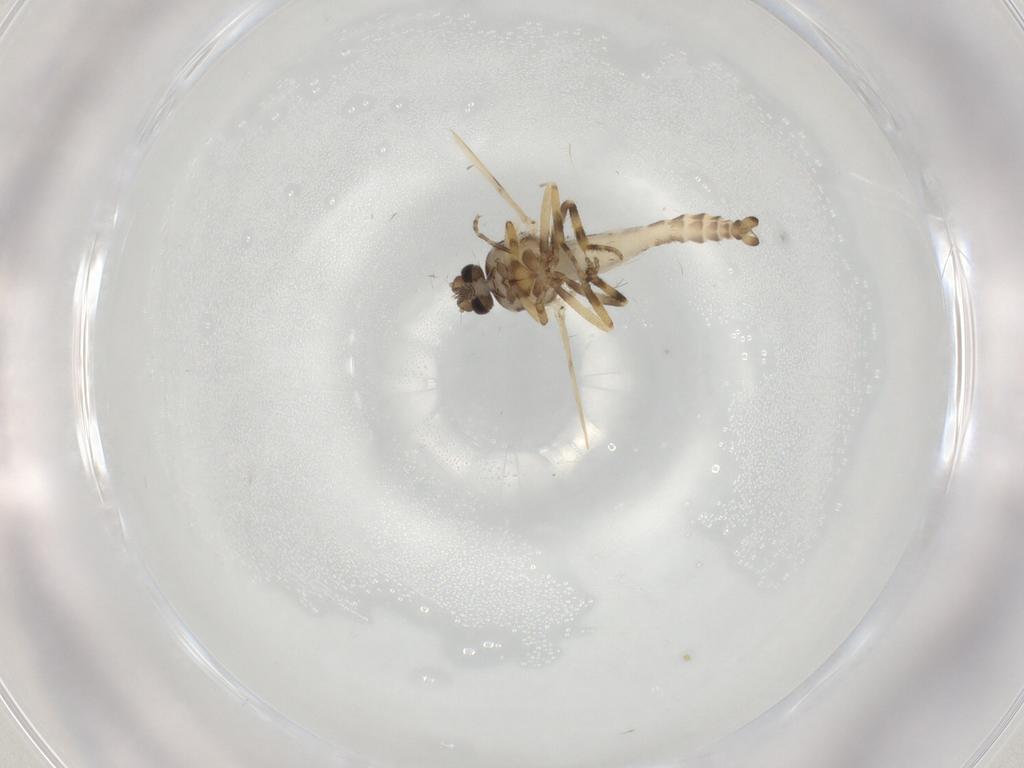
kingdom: Animalia
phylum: Arthropoda
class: Insecta
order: Diptera
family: Ceratopogonidae
